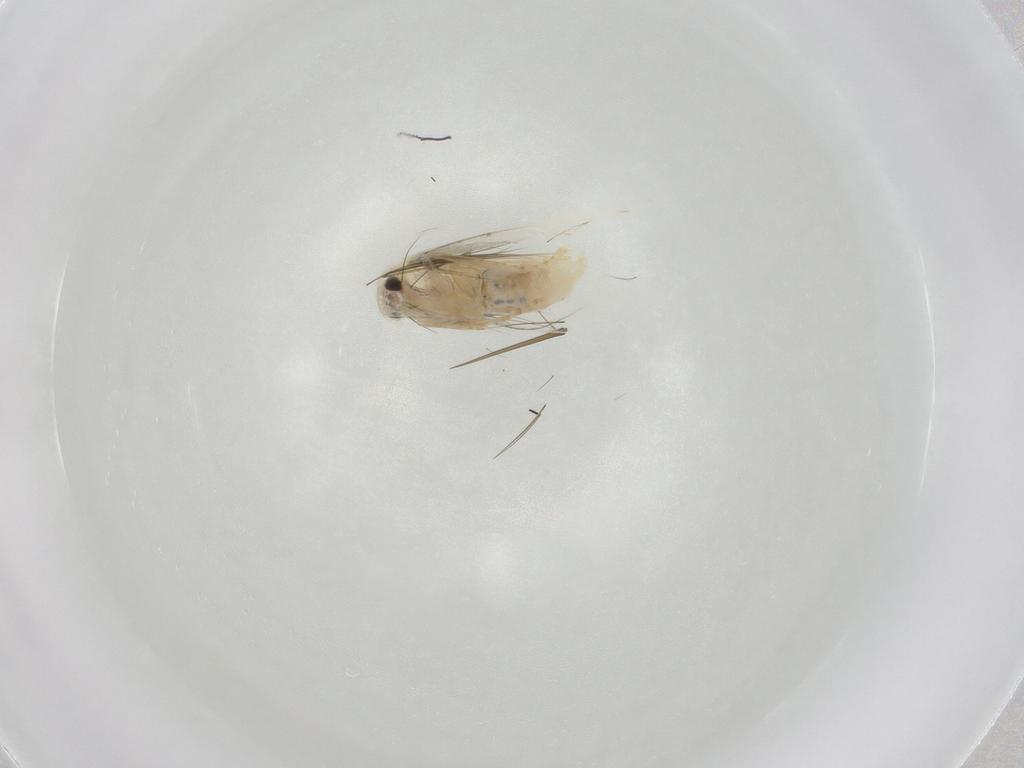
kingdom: Animalia
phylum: Arthropoda
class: Insecta
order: Lepidoptera
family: Bucculatricidae
